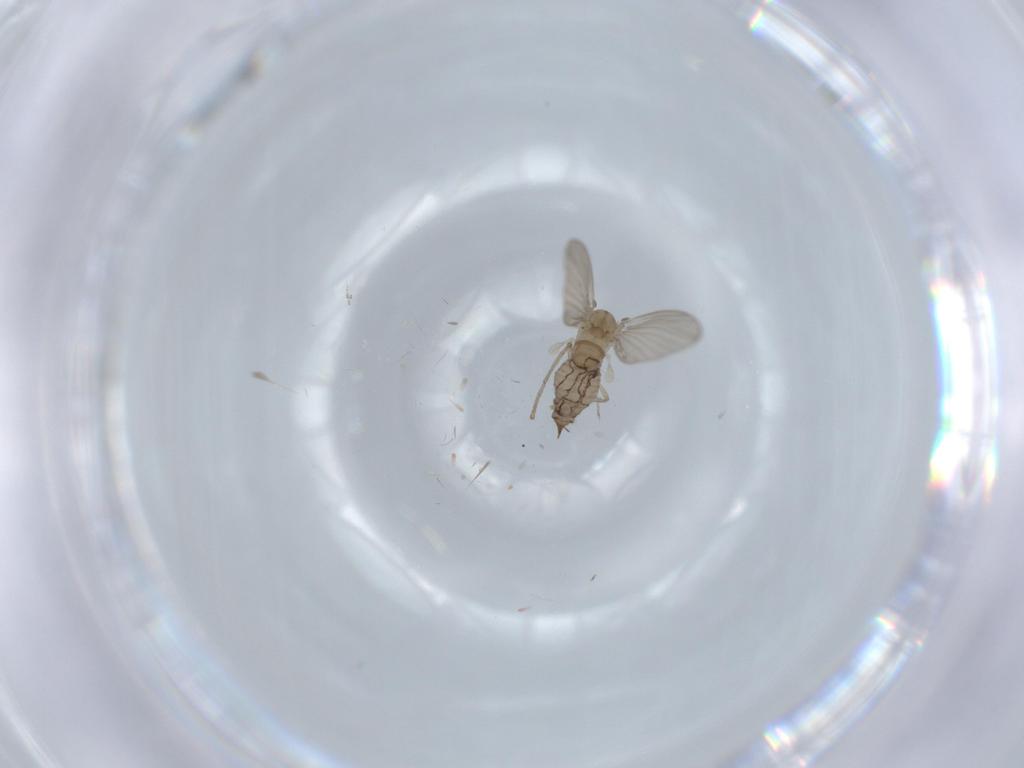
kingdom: Animalia
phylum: Arthropoda
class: Insecta
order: Diptera
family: Psychodidae
